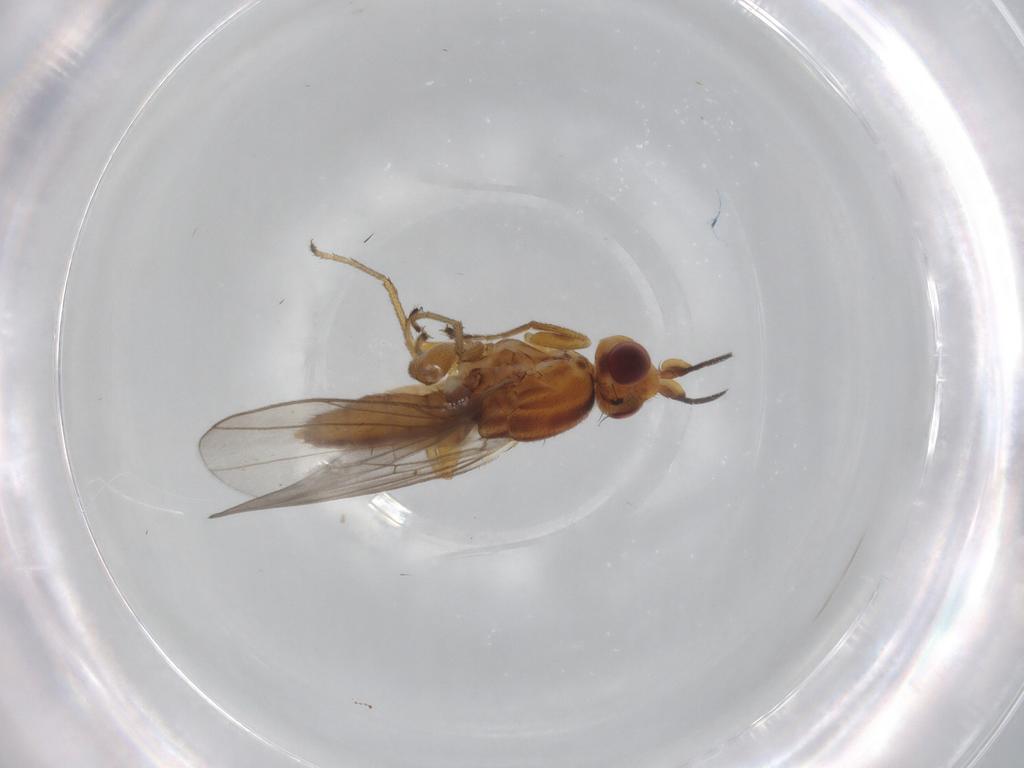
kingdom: Animalia
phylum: Arthropoda
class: Insecta
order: Diptera
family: Chloropidae
